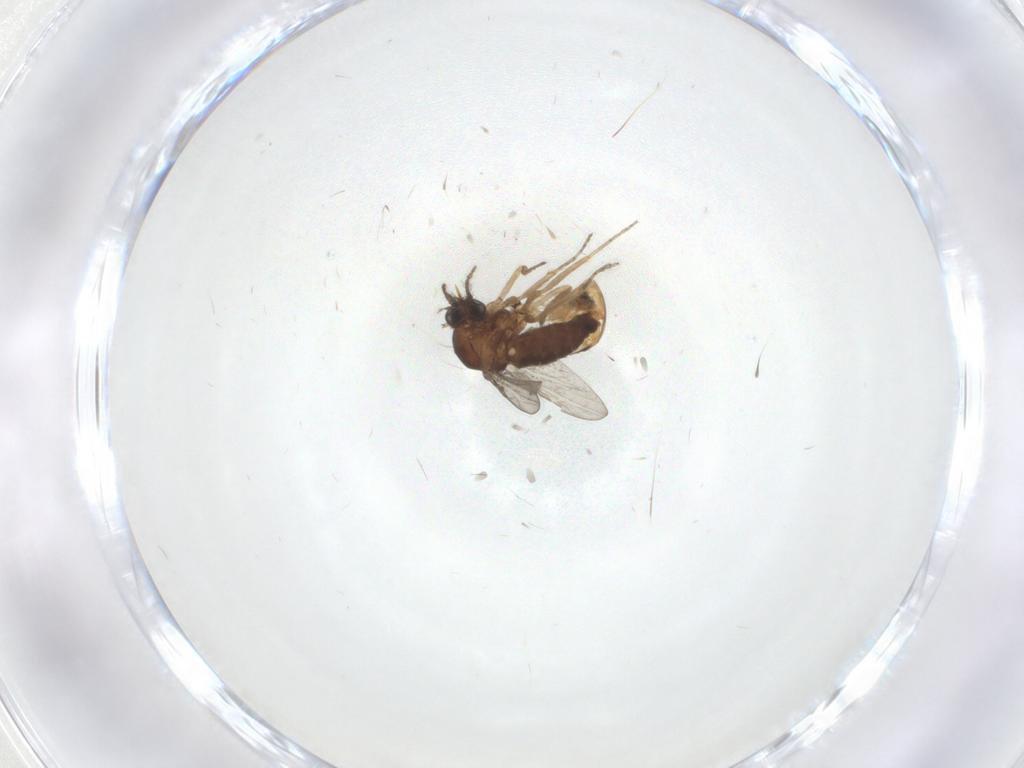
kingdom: Animalia
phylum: Arthropoda
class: Insecta
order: Diptera
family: Ceratopogonidae
